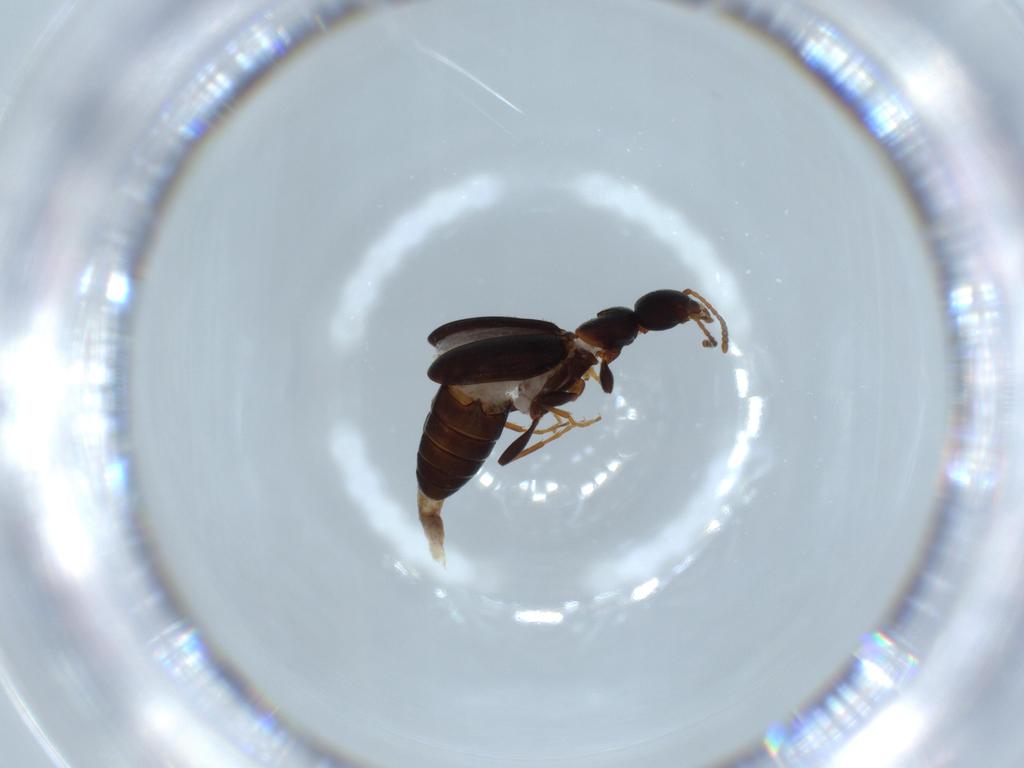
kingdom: Animalia
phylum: Arthropoda
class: Insecta
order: Coleoptera
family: Anthicidae
